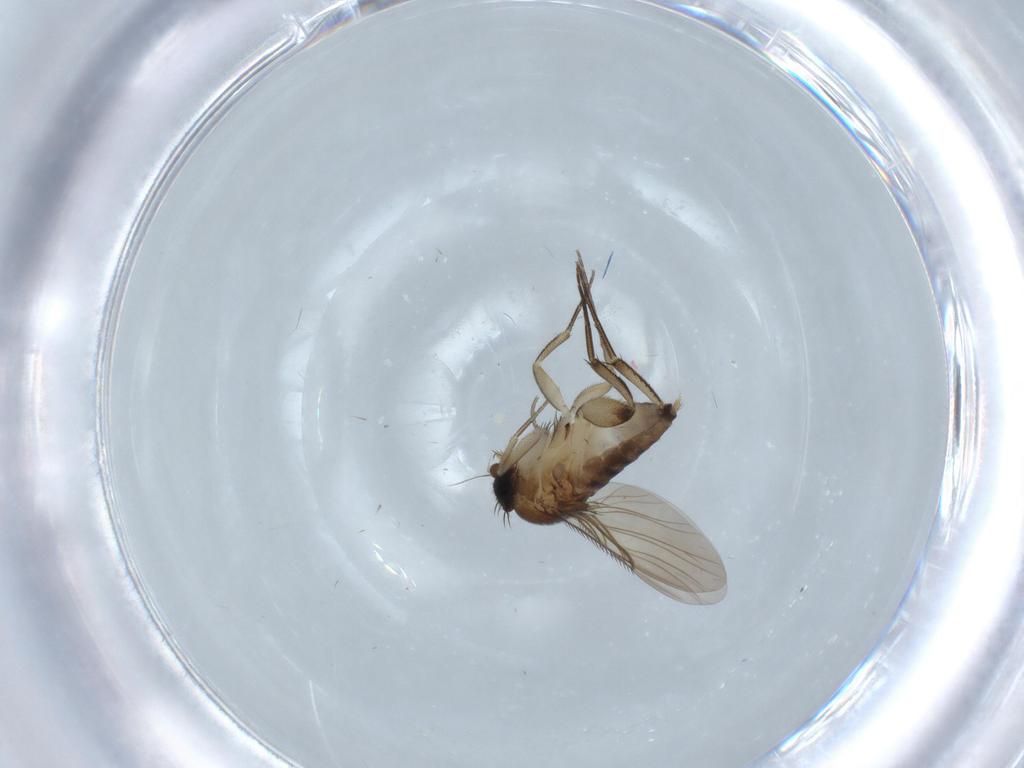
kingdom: Animalia
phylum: Arthropoda
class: Insecta
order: Diptera
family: Phoridae
